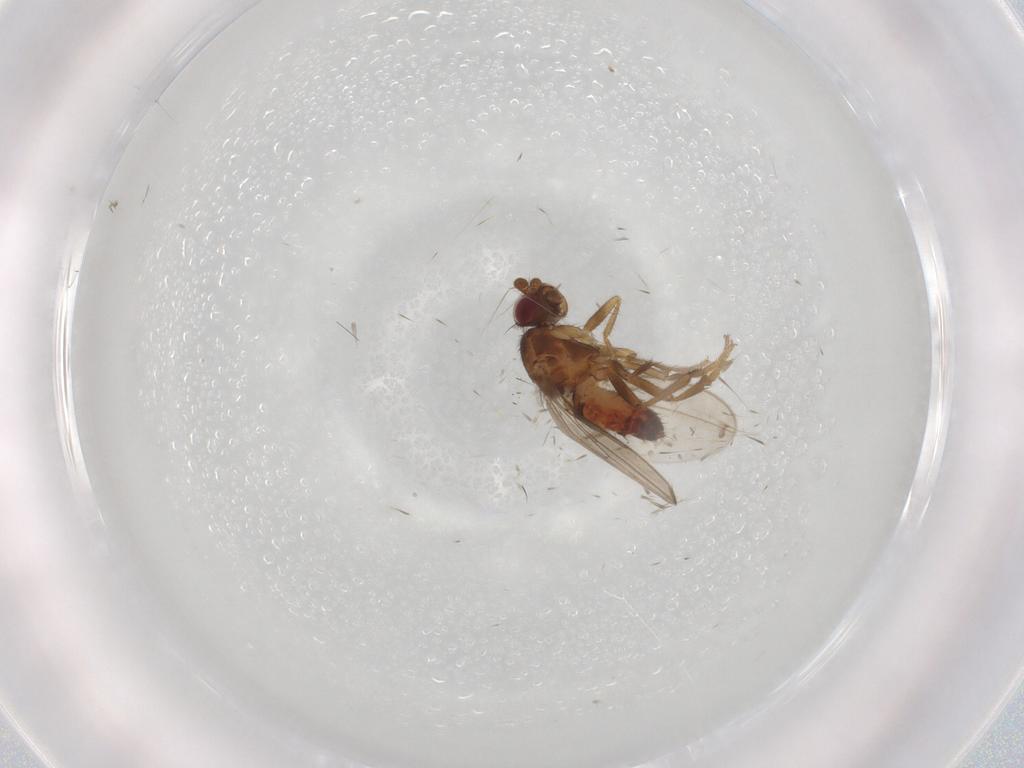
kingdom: Animalia
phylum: Arthropoda
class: Insecta
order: Diptera
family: Sphaeroceridae
